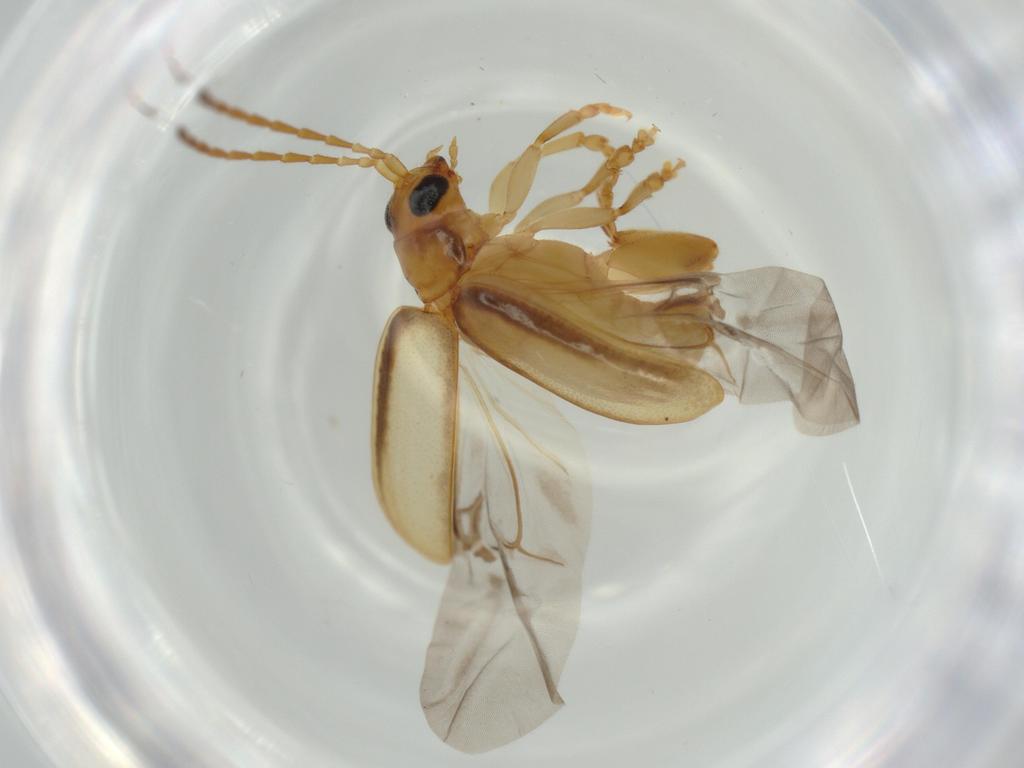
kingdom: Animalia
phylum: Arthropoda
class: Insecta
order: Coleoptera
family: Chrysomelidae
